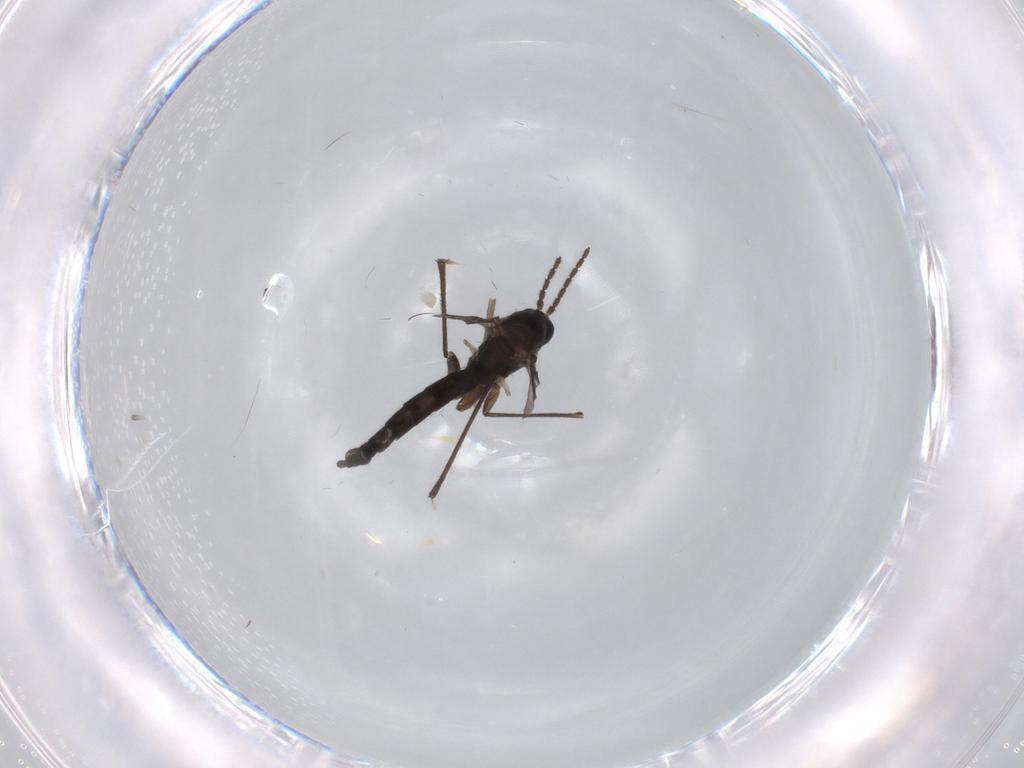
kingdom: Animalia
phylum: Arthropoda
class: Insecta
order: Diptera
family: Sciaridae
